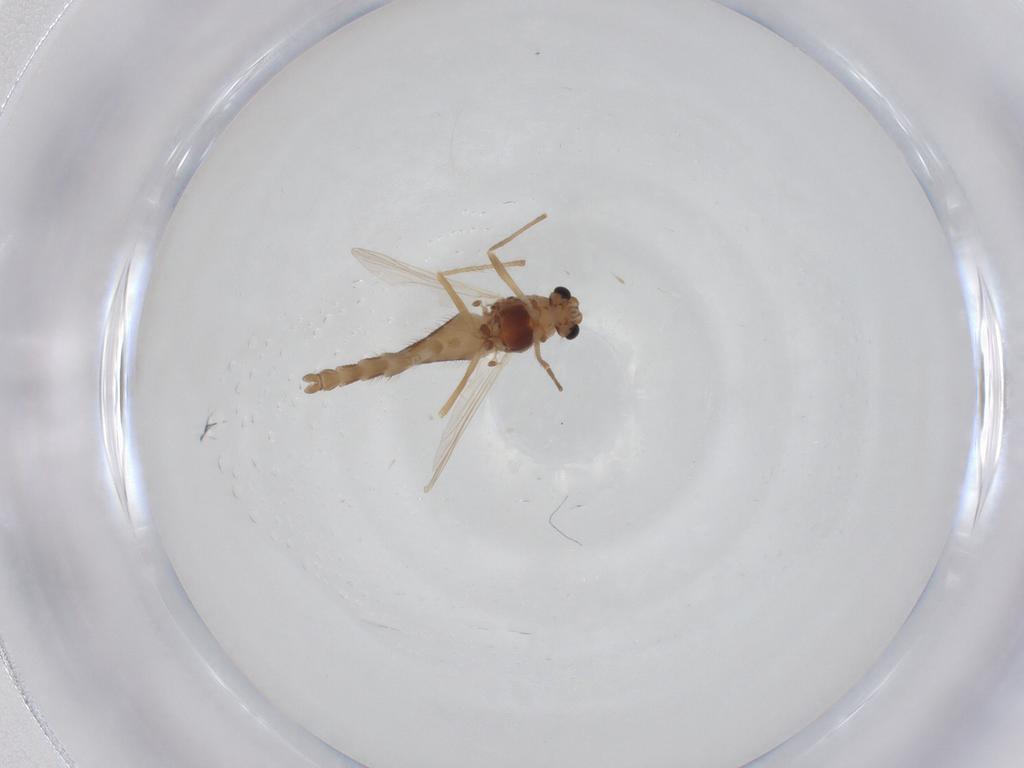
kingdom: Animalia
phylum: Arthropoda
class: Insecta
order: Diptera
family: Chironomidae
